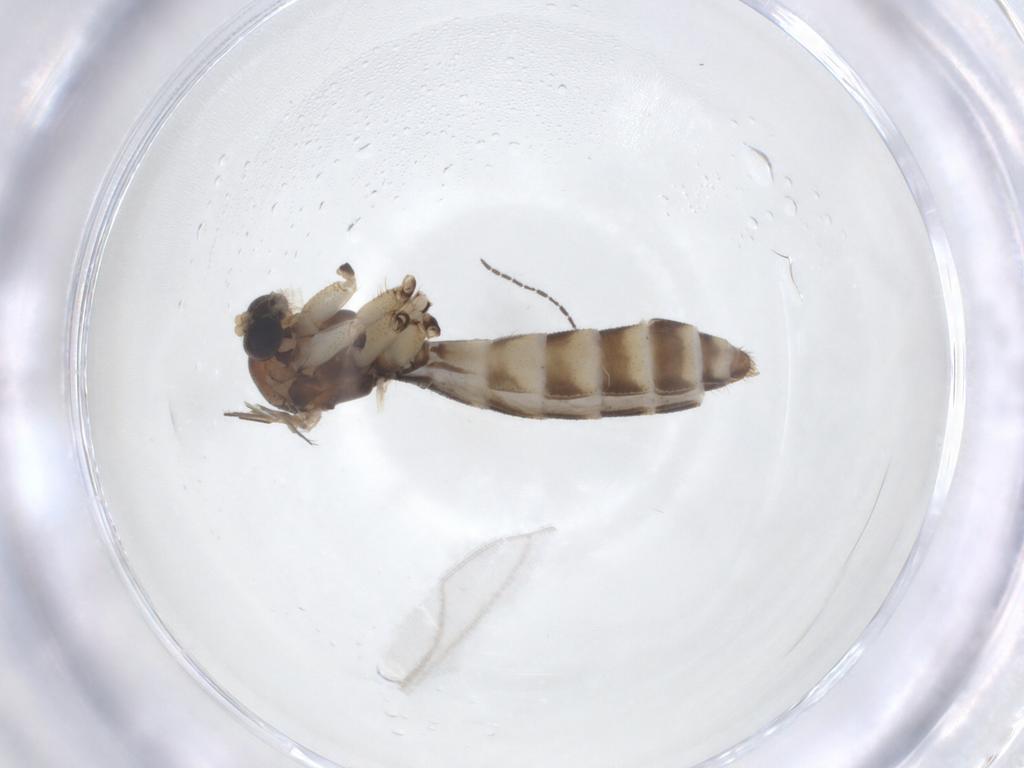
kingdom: Animalia
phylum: Arthropoda
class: Insecta
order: Diptera
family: Mycetophilidae
